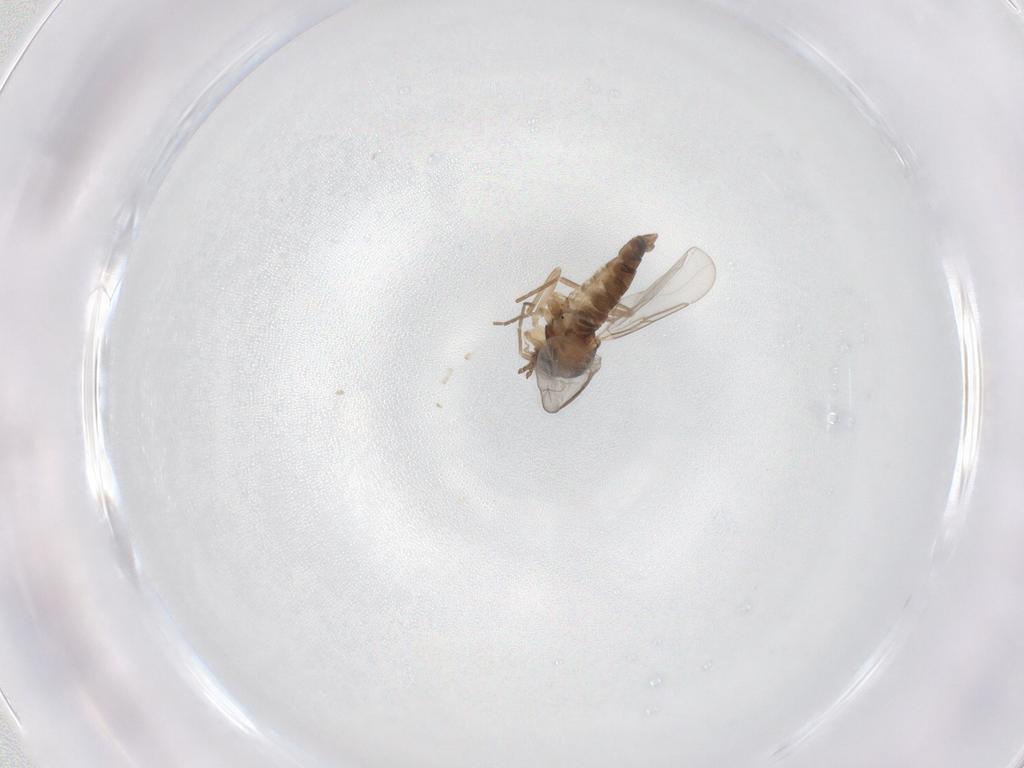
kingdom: Animalia
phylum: Arthropoda
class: Insecta
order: Diptera
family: Cecidomyiidae
